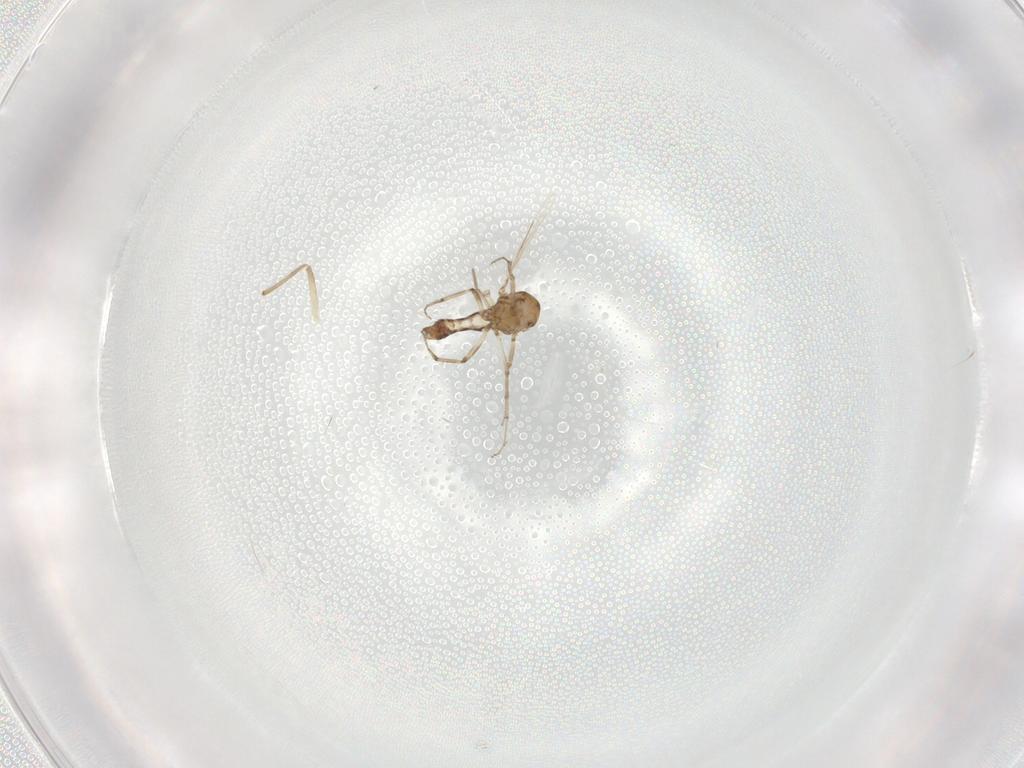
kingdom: Animalia
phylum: Arthropoda
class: Insecta
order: Diptera
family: Ceratopogonidae
